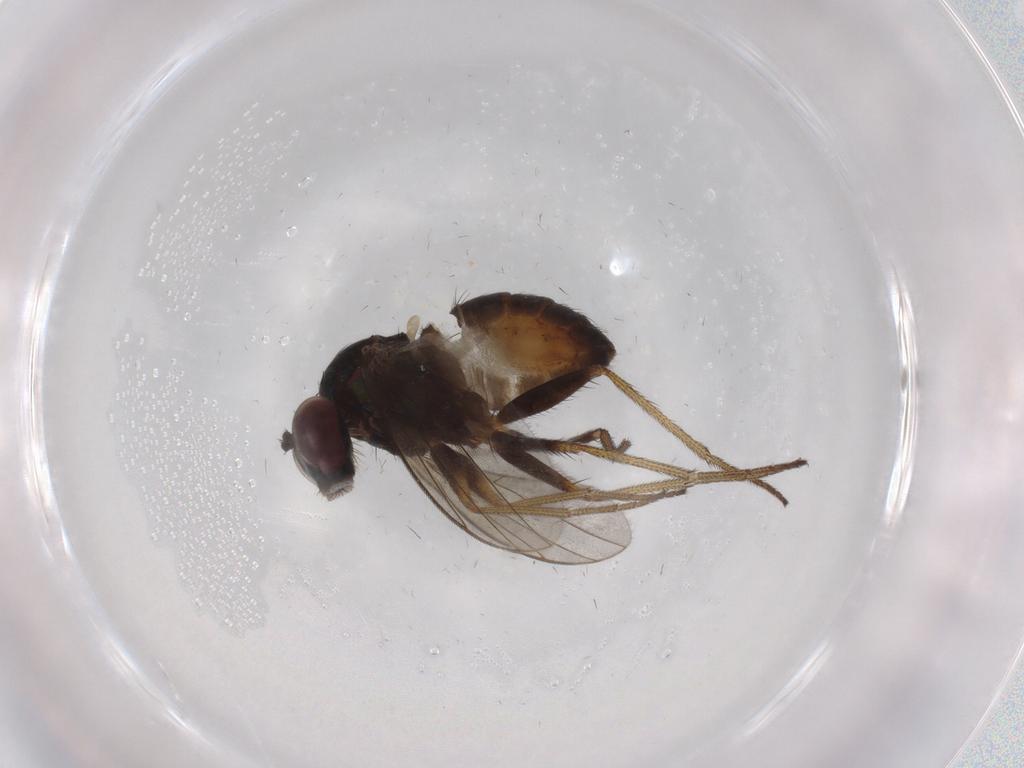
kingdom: Animalia
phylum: Arthropoda
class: Insecta
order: Diptera
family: Dolichopodidae
